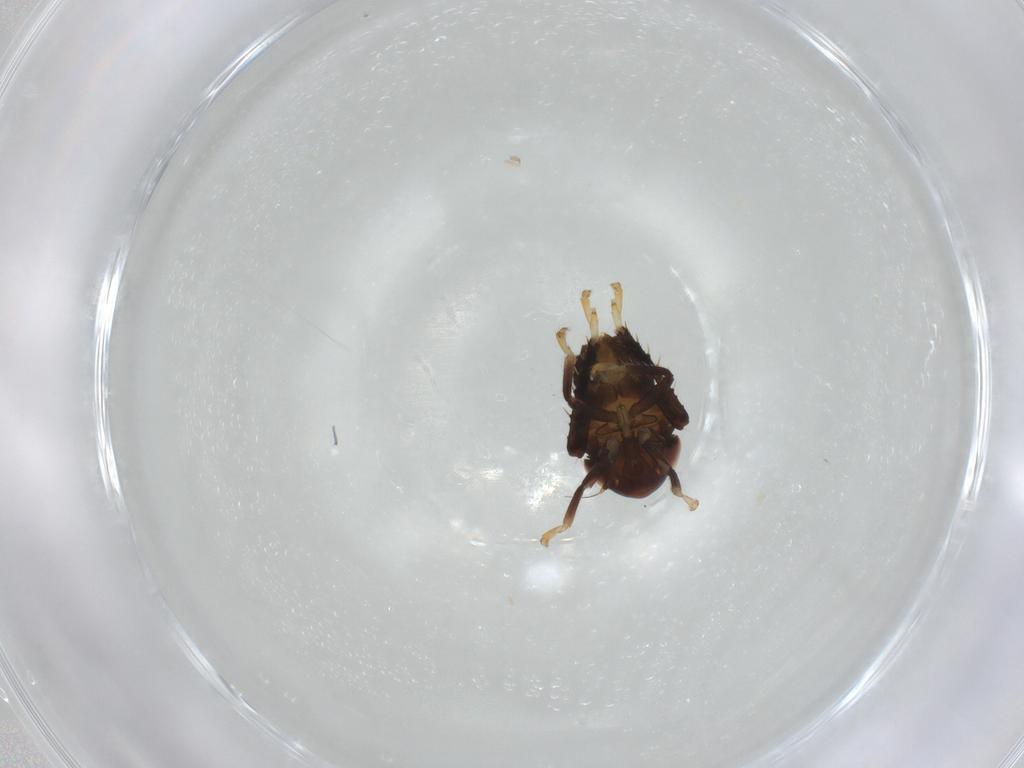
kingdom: Animalia
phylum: Arthropoda
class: Insecta
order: Hemiptera
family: Cicadellidae
